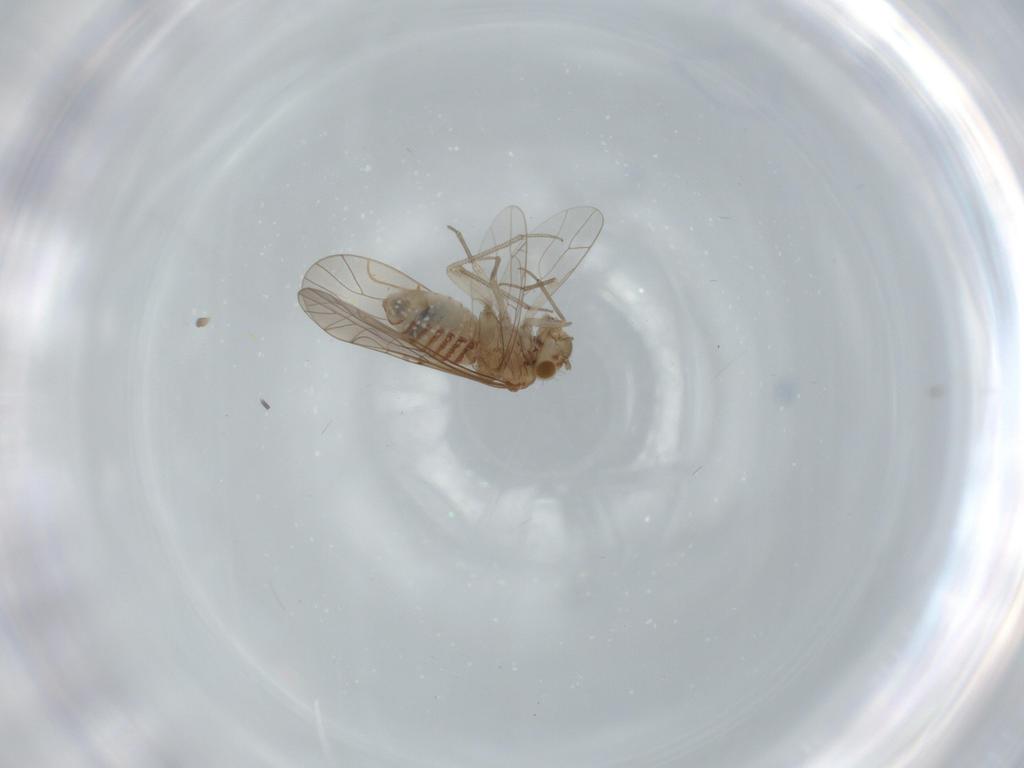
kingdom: Animalia
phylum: Arthropoda
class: Insecta
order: Psocodea
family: Lachesillidae
